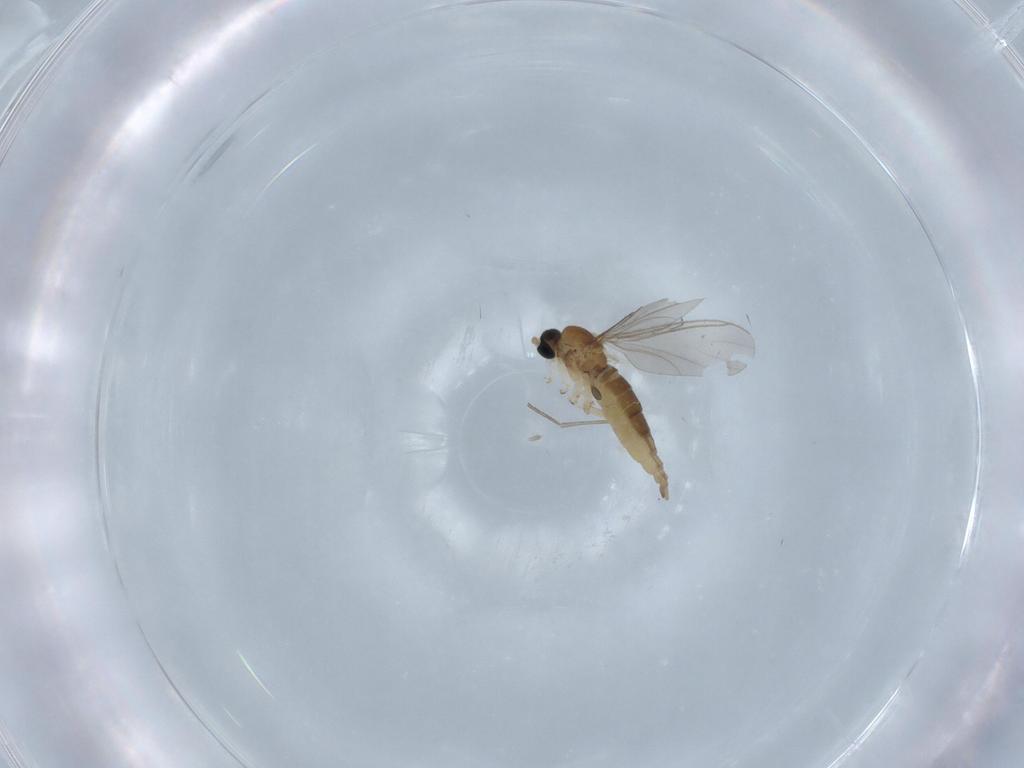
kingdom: Animalia
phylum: Arthropoda
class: Insecta
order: Diptera
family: Sciaridae
